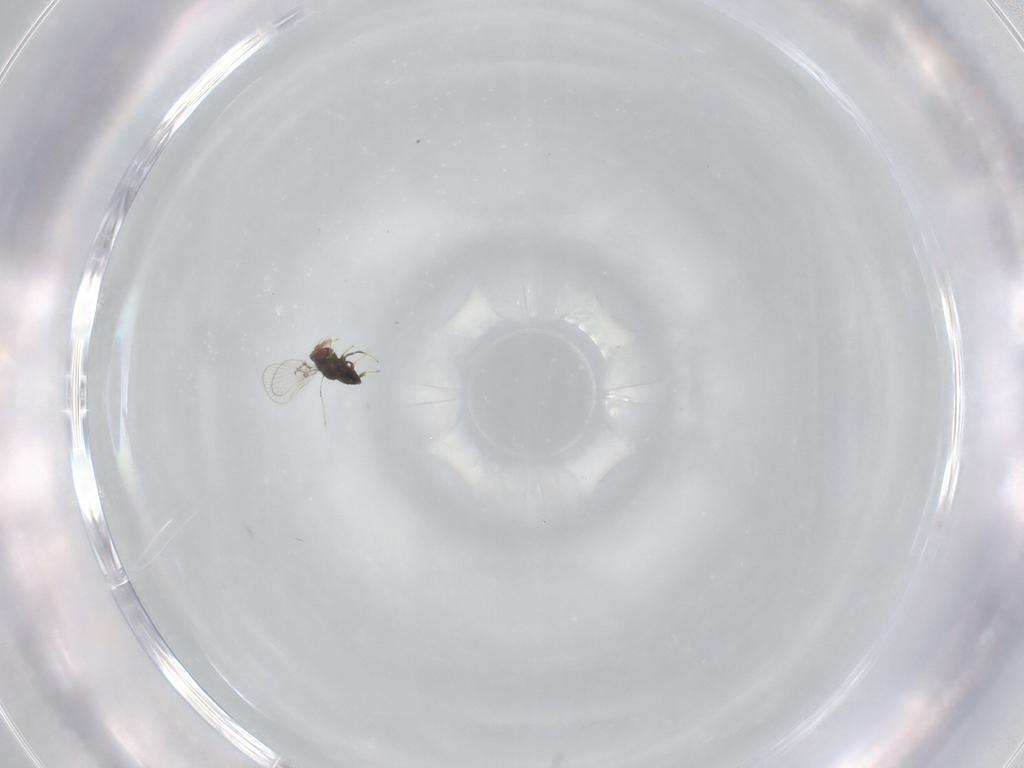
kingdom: Animalia
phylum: Arthropoda
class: Insecta
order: Hymenoptera
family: Trichogrammatidae
